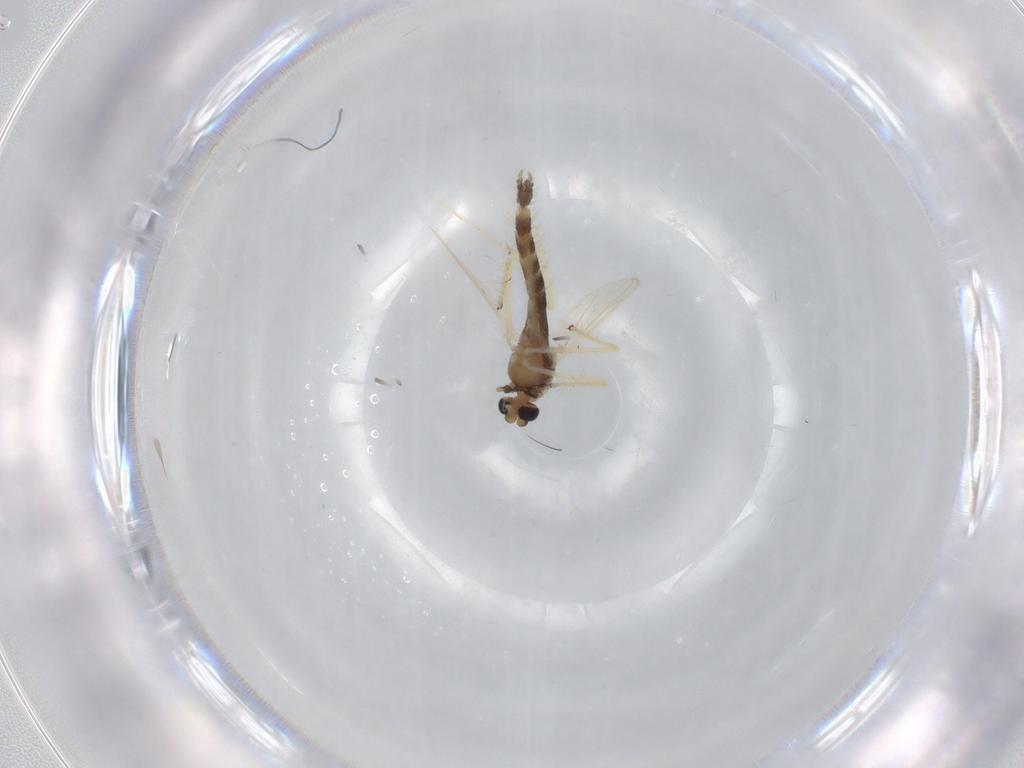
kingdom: Animalia
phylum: Arthropoda
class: Insecta
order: Diptera
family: Chironomidae
